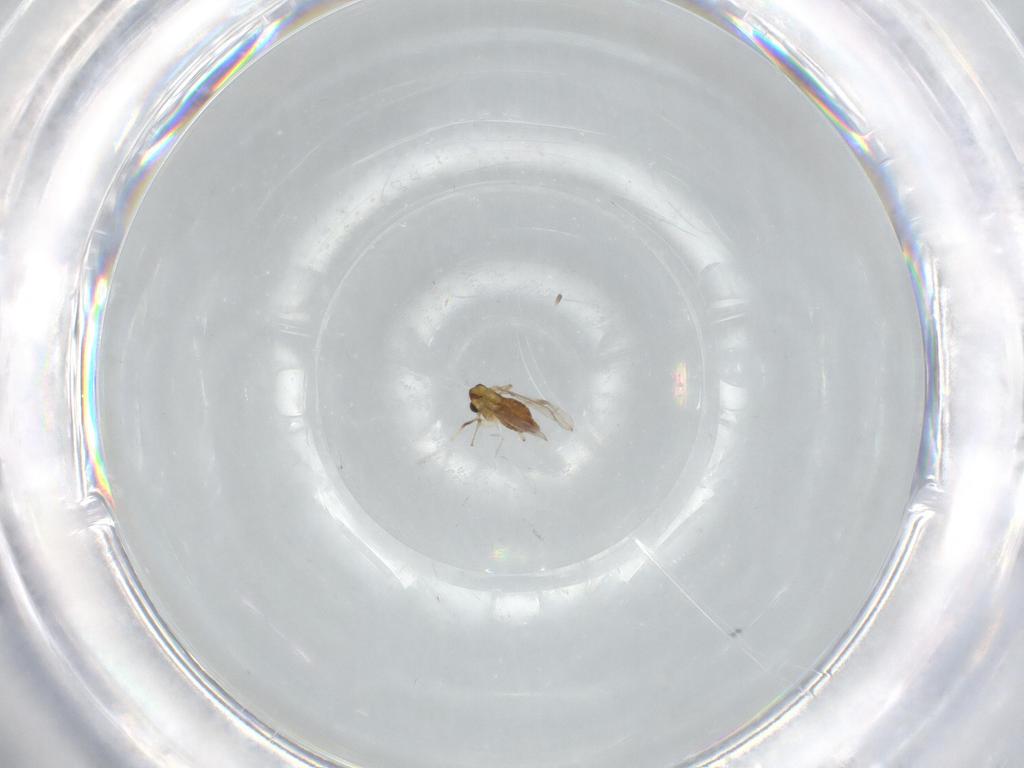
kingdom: Animalia
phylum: Arthropoda
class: Insecta
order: Diptera
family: Chironomidae
